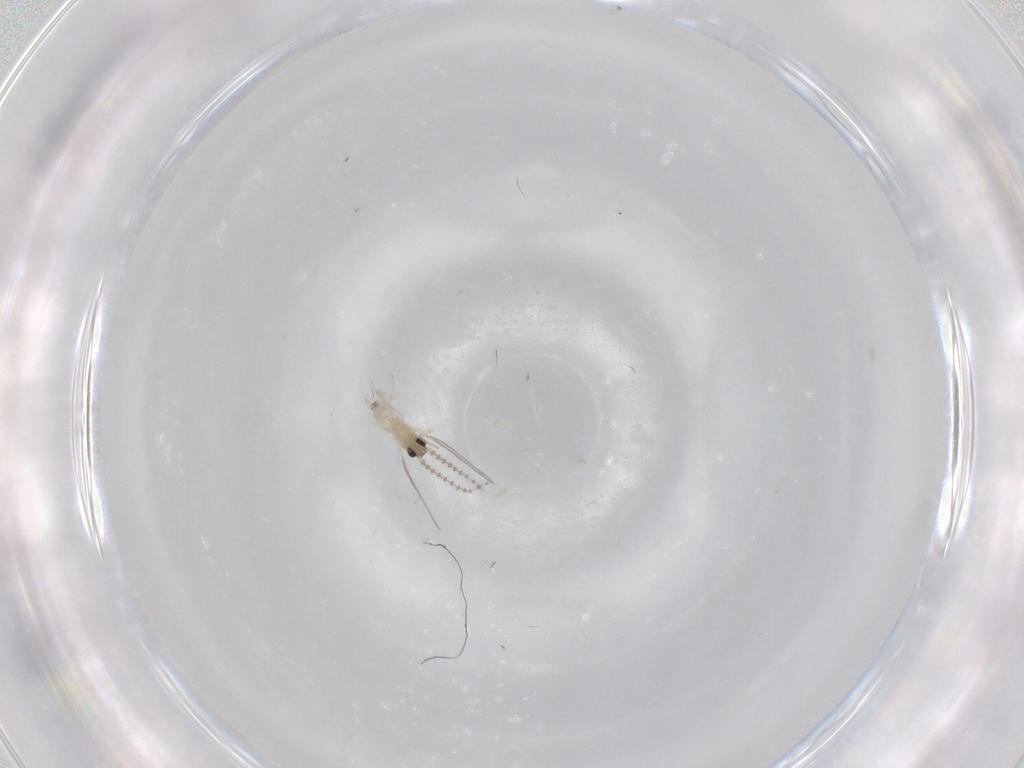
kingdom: Animalia
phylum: Arthropoda
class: Insecta
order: Diptera
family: Cecidomyiidae
